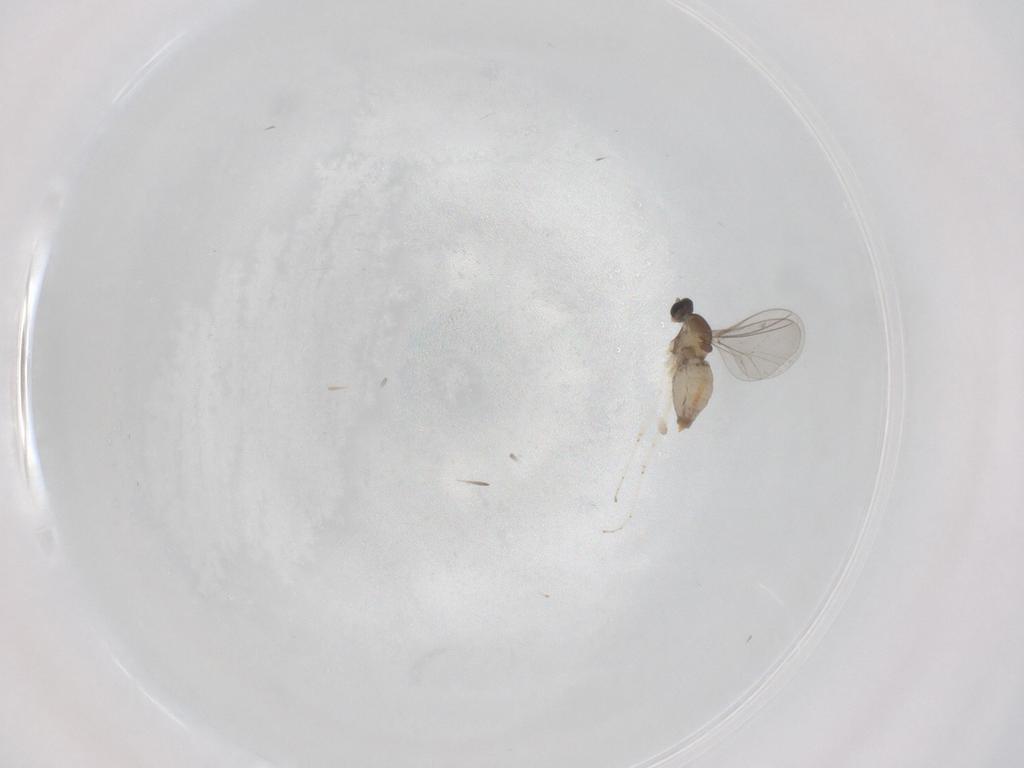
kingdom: Animalia
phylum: Arthropoda
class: Insecta
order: Diptera
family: Cecidomyiidae
